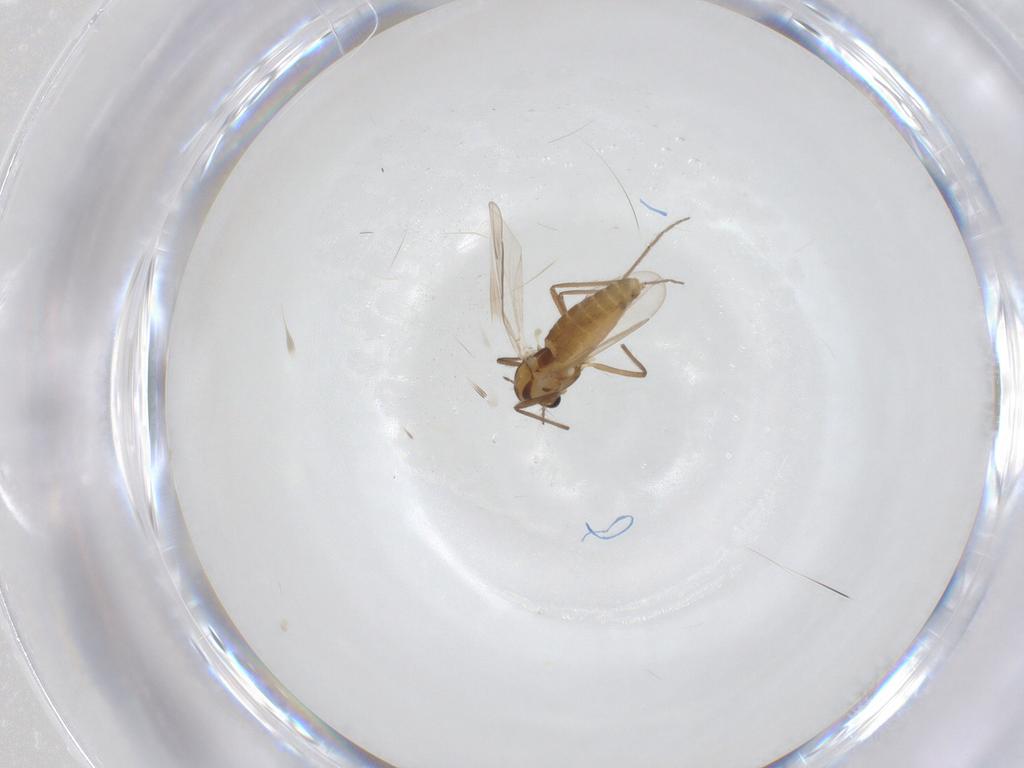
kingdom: Animalia
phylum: Arthropoda
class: Insecta
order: Diptera
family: Chironomidae
